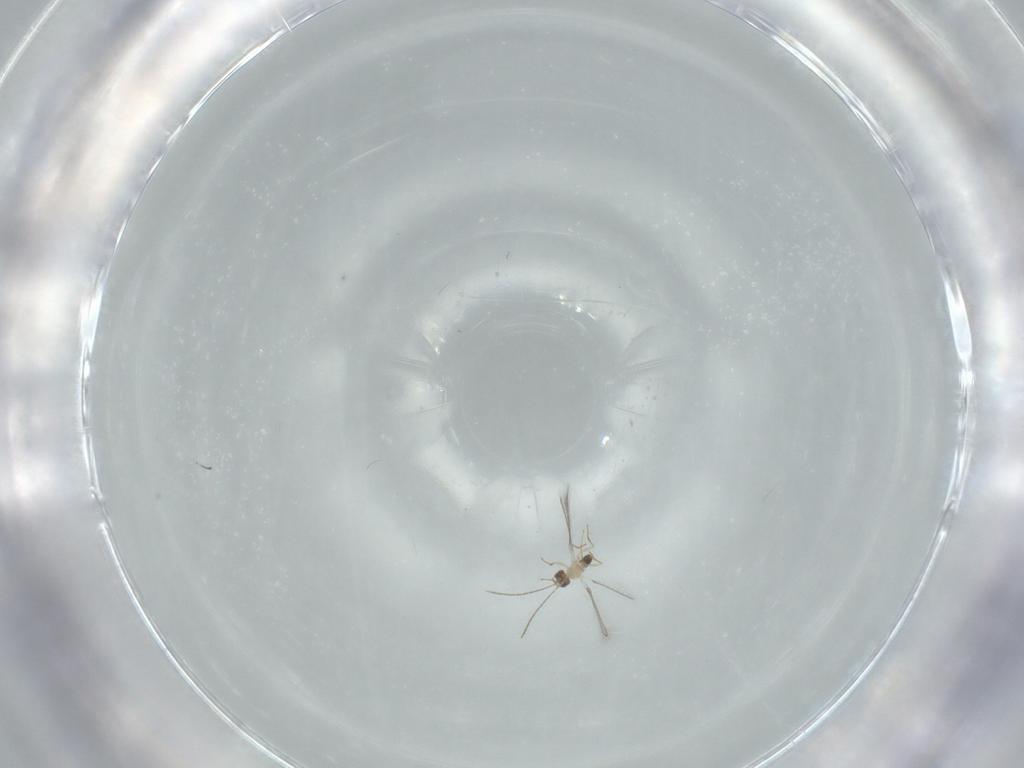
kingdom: Animalia
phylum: Arthropoda
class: Insecta
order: Hymenoptera
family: Mymaridae
